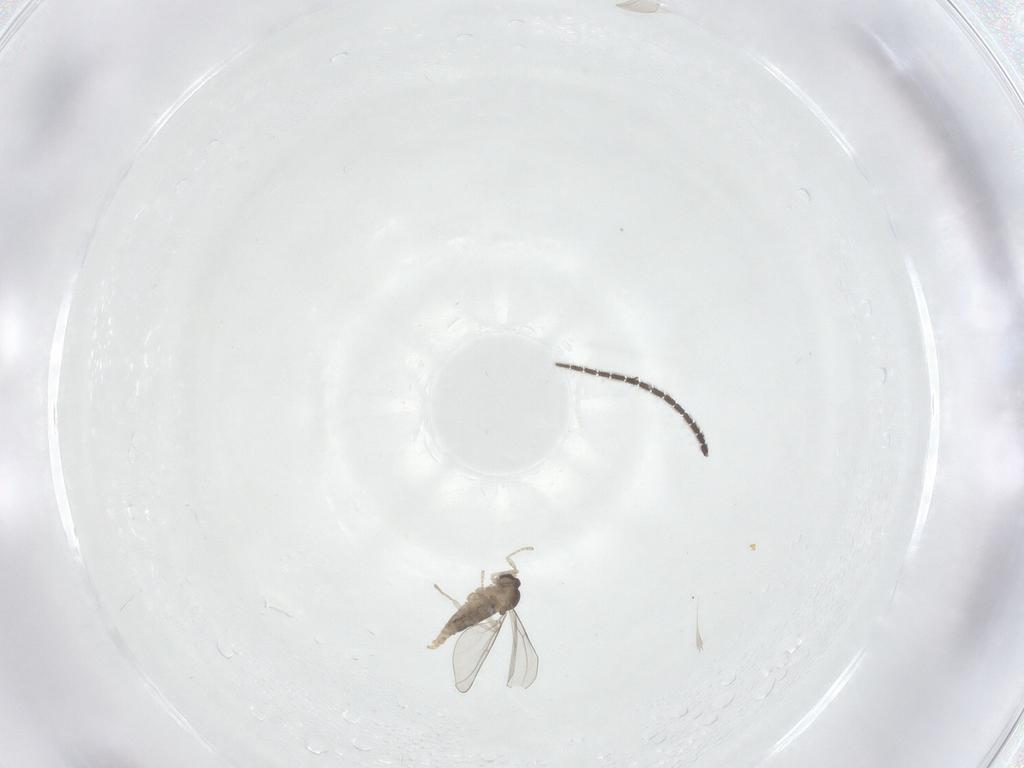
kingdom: Animalia
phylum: Arthropoda
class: Insecta
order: Diptera
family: Sciaridae
